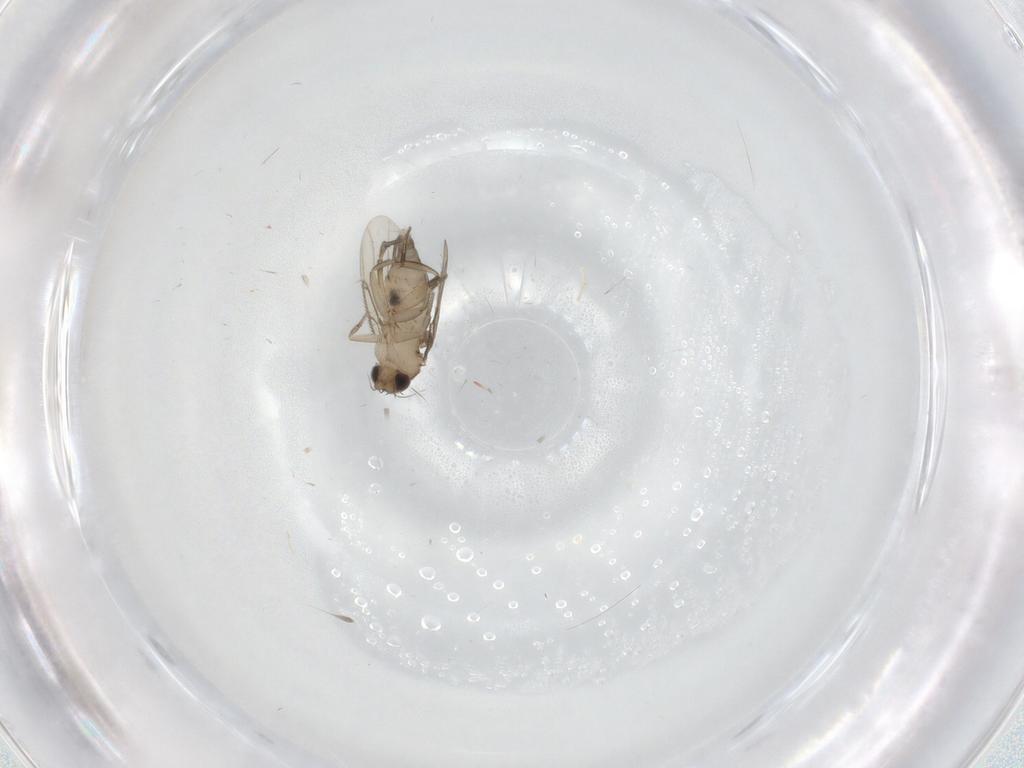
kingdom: Animalia
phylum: Arthropoda
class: Insecta
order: Diptera
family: Phoridae
